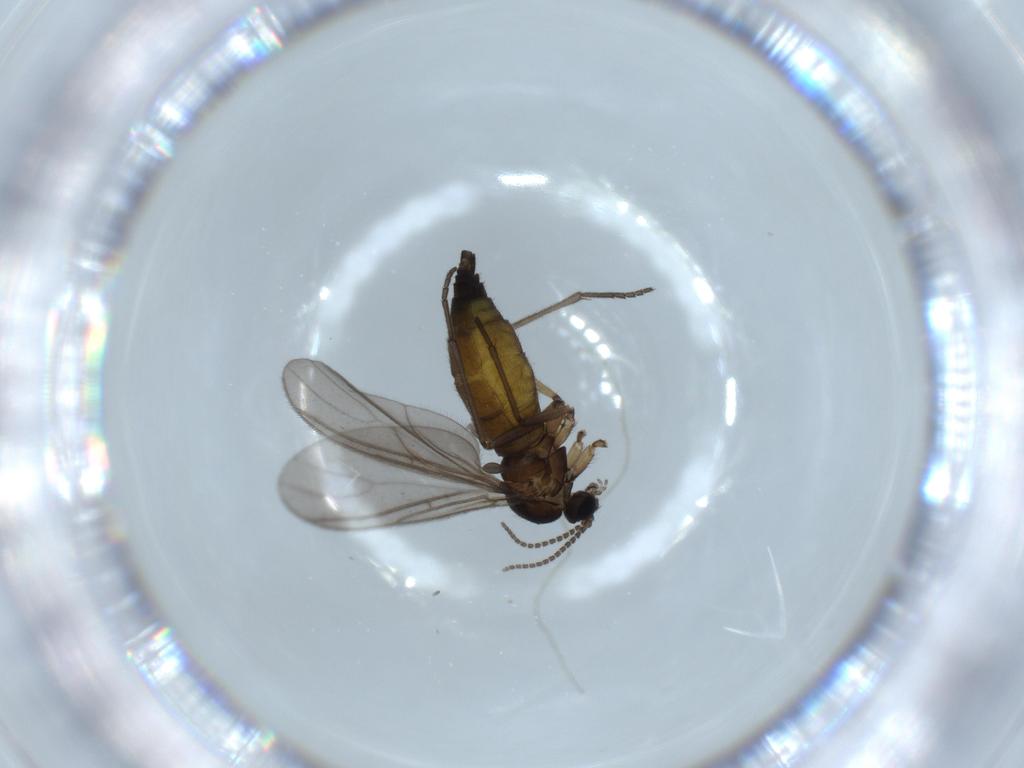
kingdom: Animalia
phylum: Arthropoda
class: Insecta
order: Diptera
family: Sciaridae
